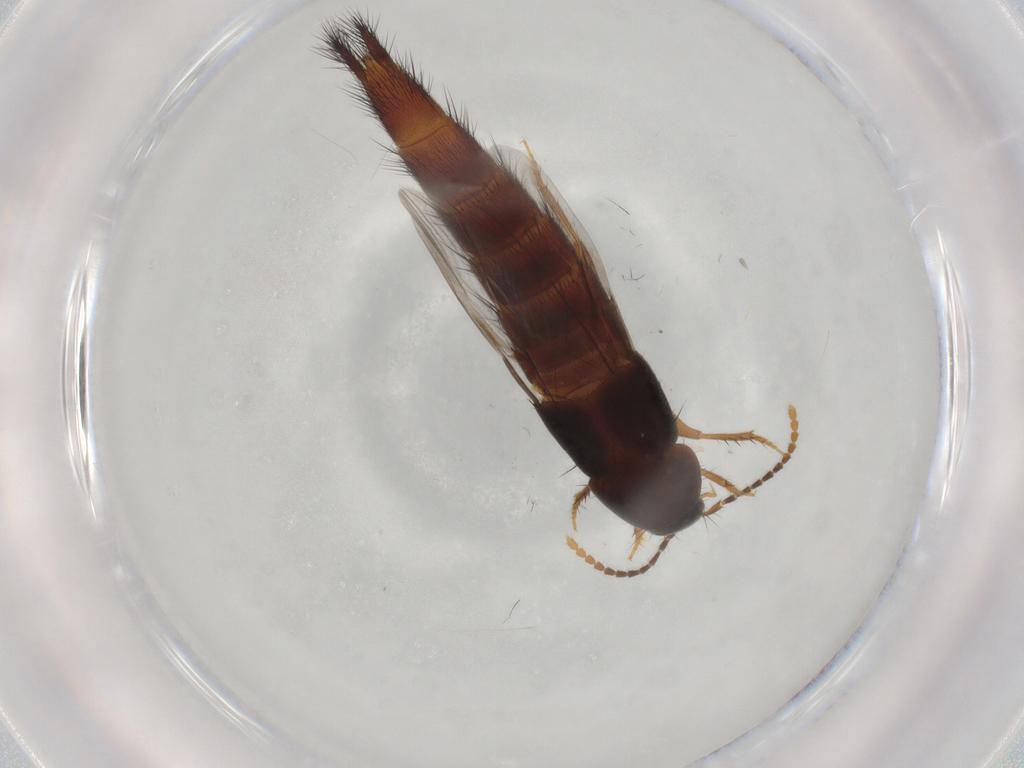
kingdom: Animalia
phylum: Arthropoda
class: Insecta
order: Coleoptera
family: Staphylinidae
